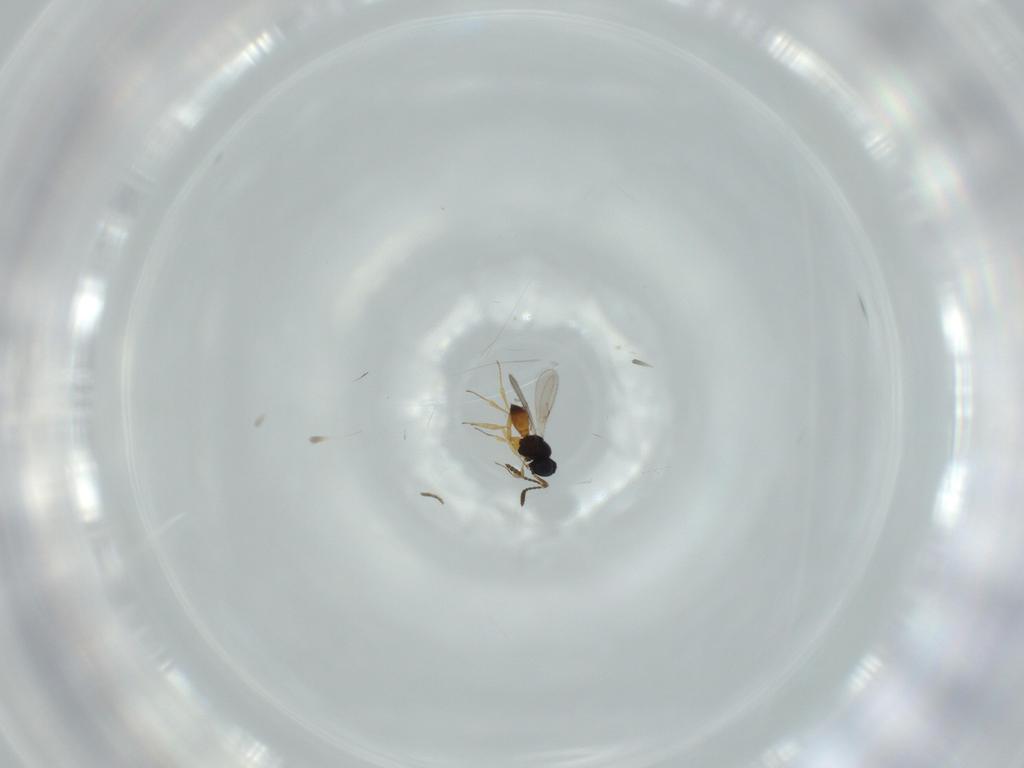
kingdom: Animalia
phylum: Arthropoda
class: Insecta
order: Hymenoptera
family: Scelionidae
